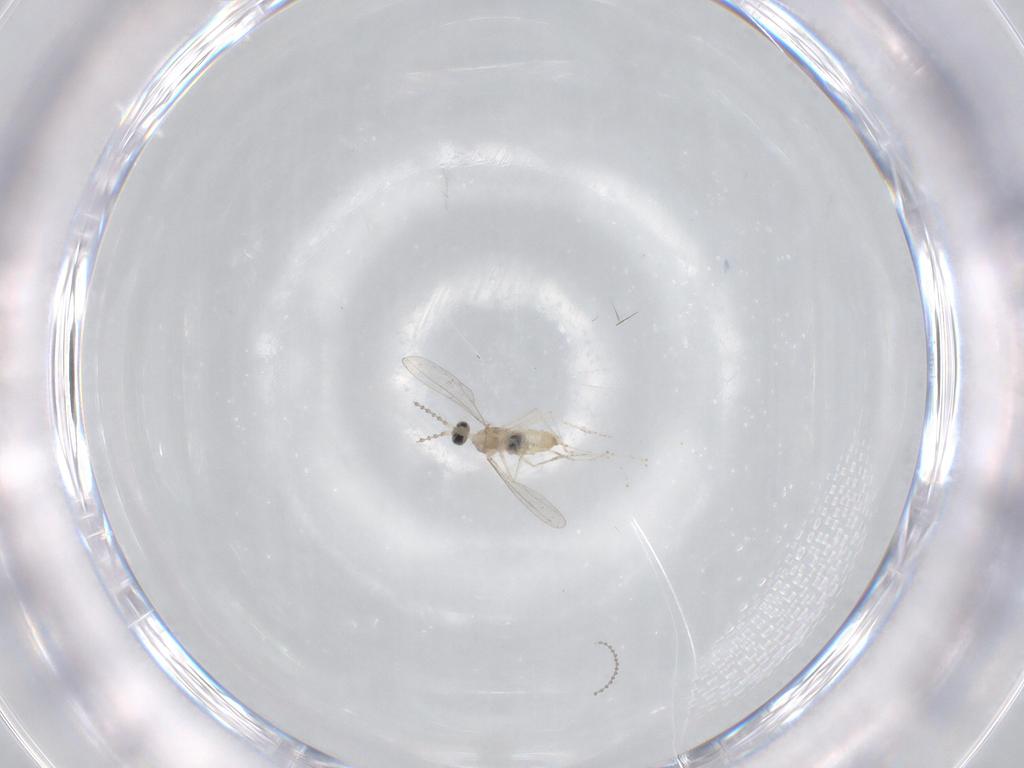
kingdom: Animalia
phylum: Arthropoda
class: Insecta
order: Diptera
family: Cecidomyiidae
